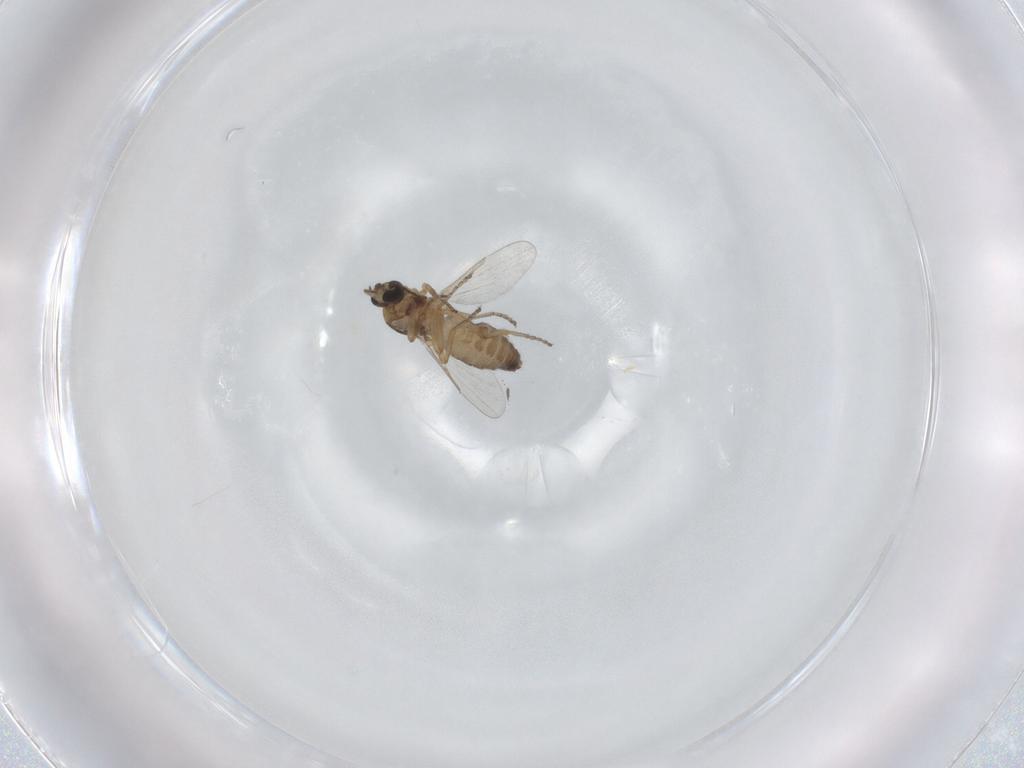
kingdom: Animalia
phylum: Arthropoda
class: Insecta
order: Diptera
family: Ceratopogonidae
